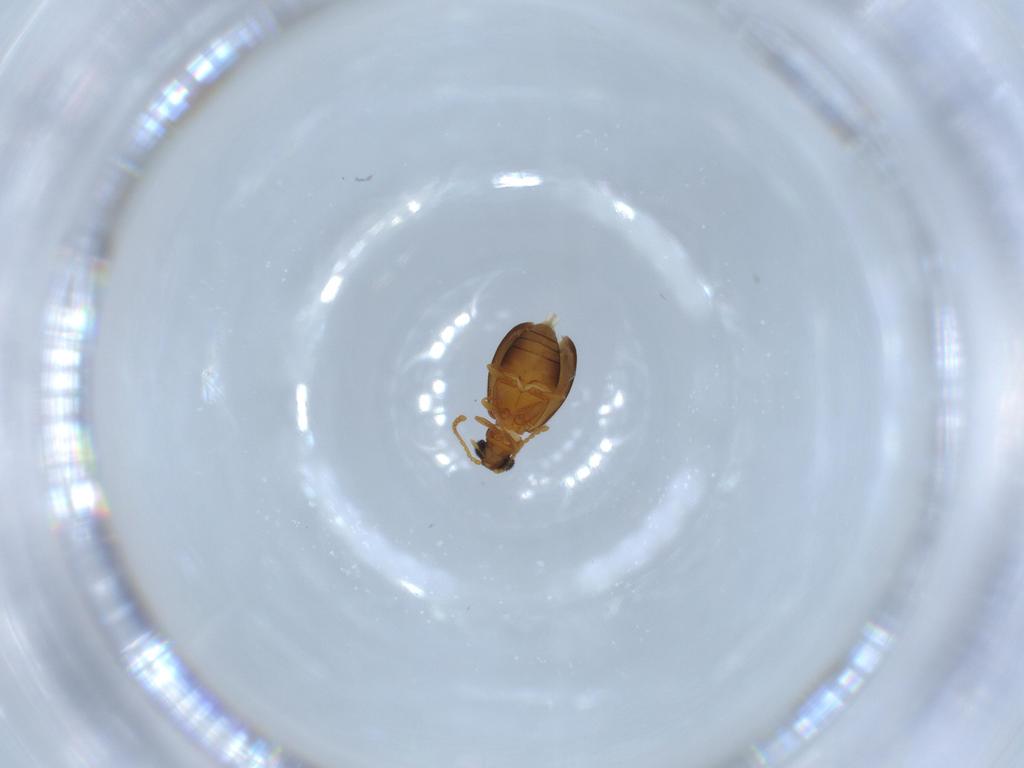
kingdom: Animalia
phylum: Arthropoda
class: Insecta
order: Coleoptera
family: Aderidae
